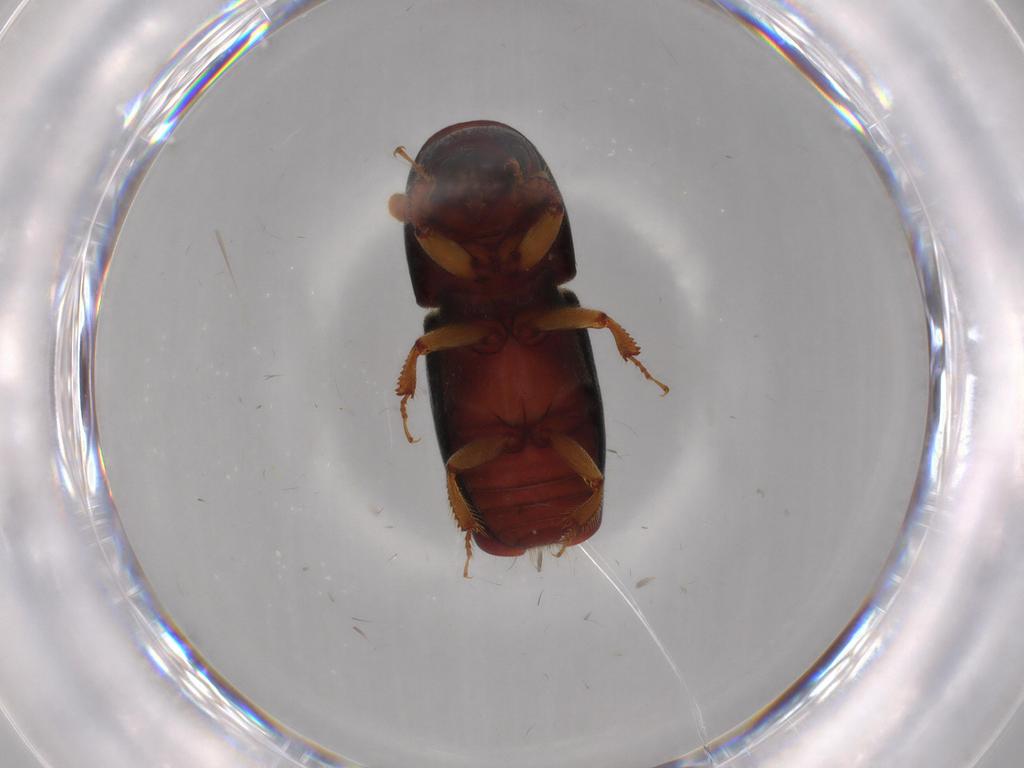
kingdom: Animalia
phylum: Arthropoda
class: Insecta
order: Coleoptera
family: Curculionidae
